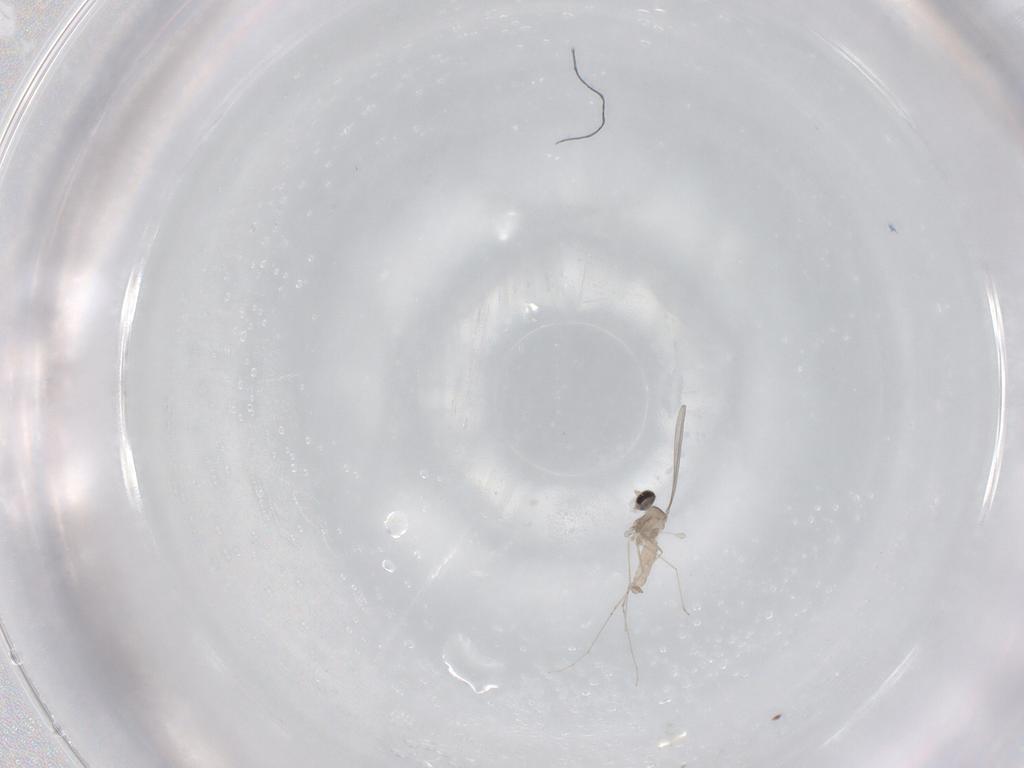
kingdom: Animalia
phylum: Arthropoda
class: Insecta
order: Diptera
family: Cecidomyiidae
